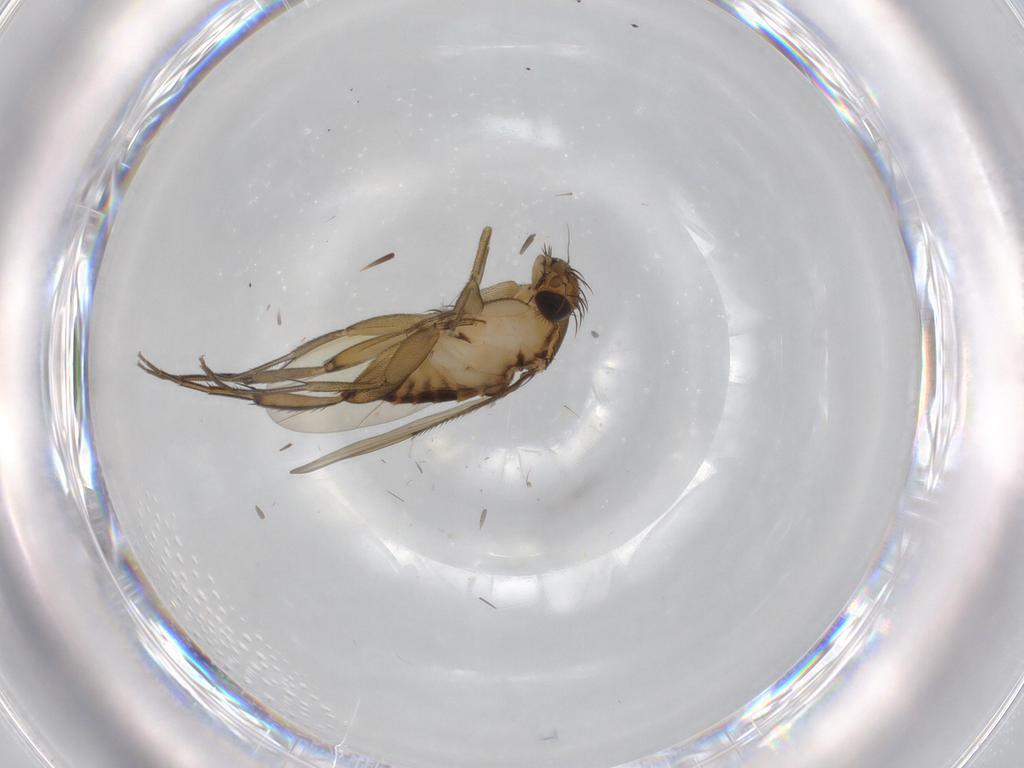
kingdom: Animalia
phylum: Arthropoda
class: Insecta
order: Diptera
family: Phoridae
